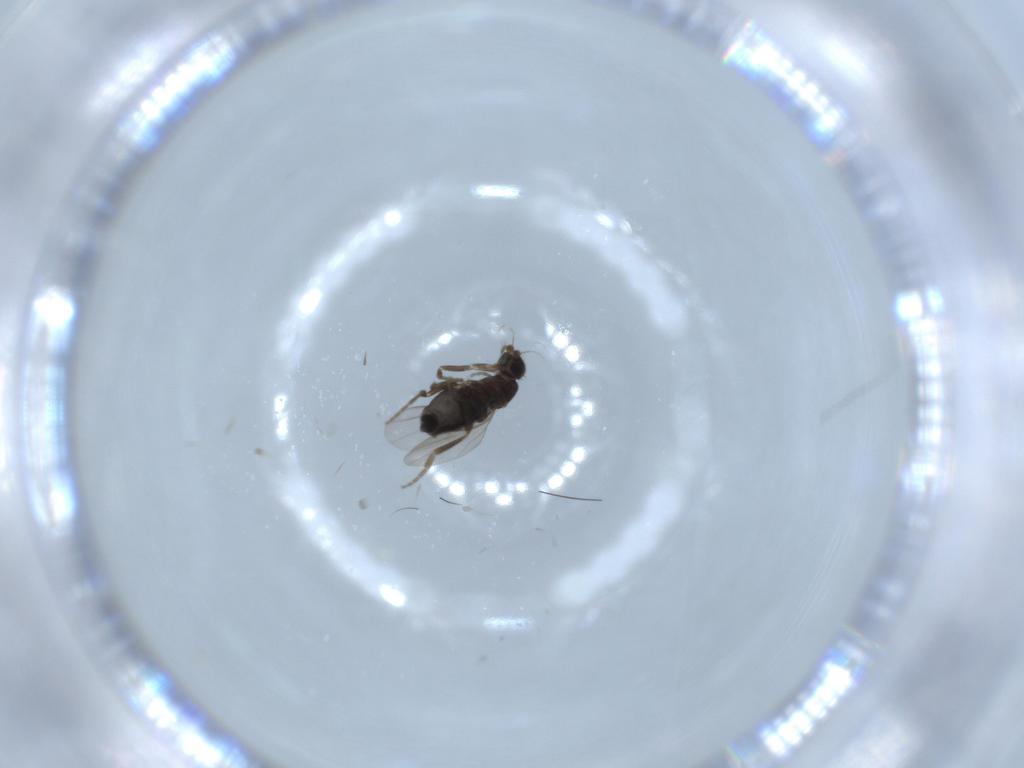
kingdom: Animalia
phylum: Arthropoda
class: Insecta
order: Diptera
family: Phoridae
